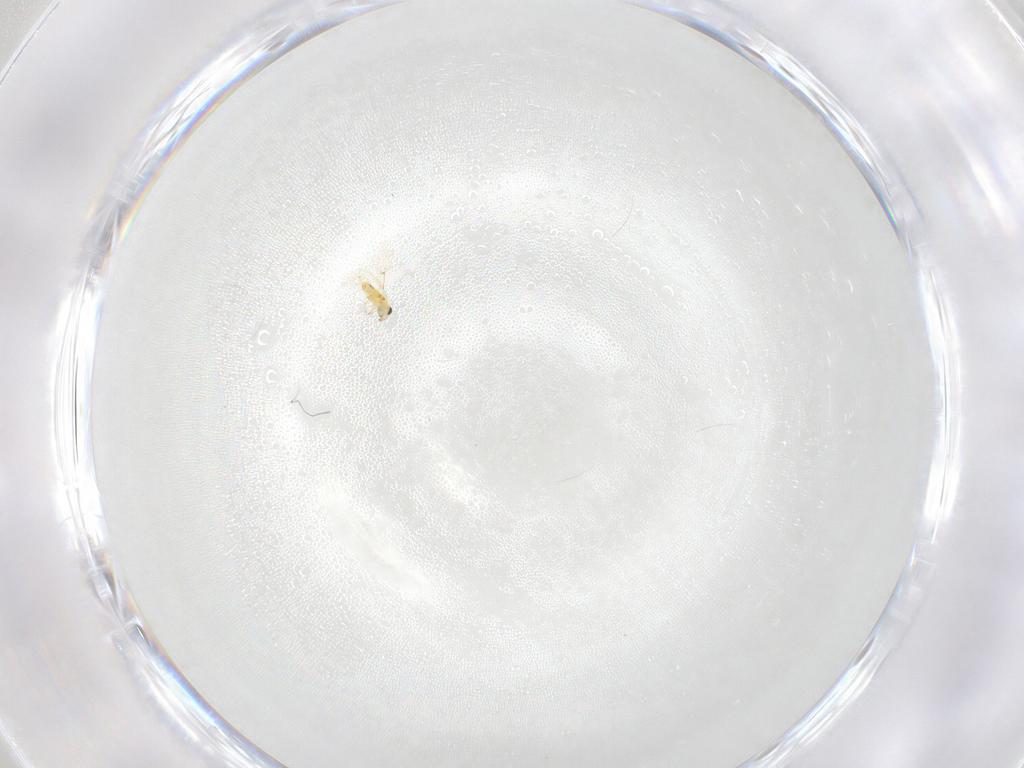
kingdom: Animalia
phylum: Arthropoda
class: Insecta
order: Hymenoptera
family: Trichogrammatidae
